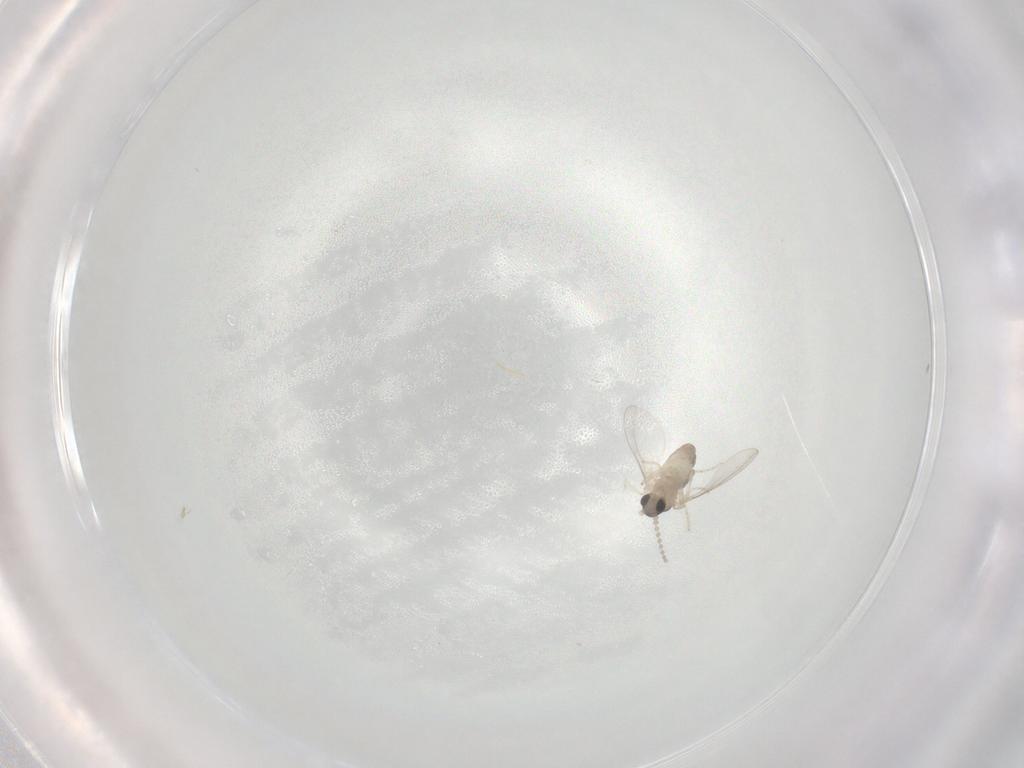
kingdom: Animalia
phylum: Arthropoda
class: Insecta
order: Diptera
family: Cecidomyiidae
